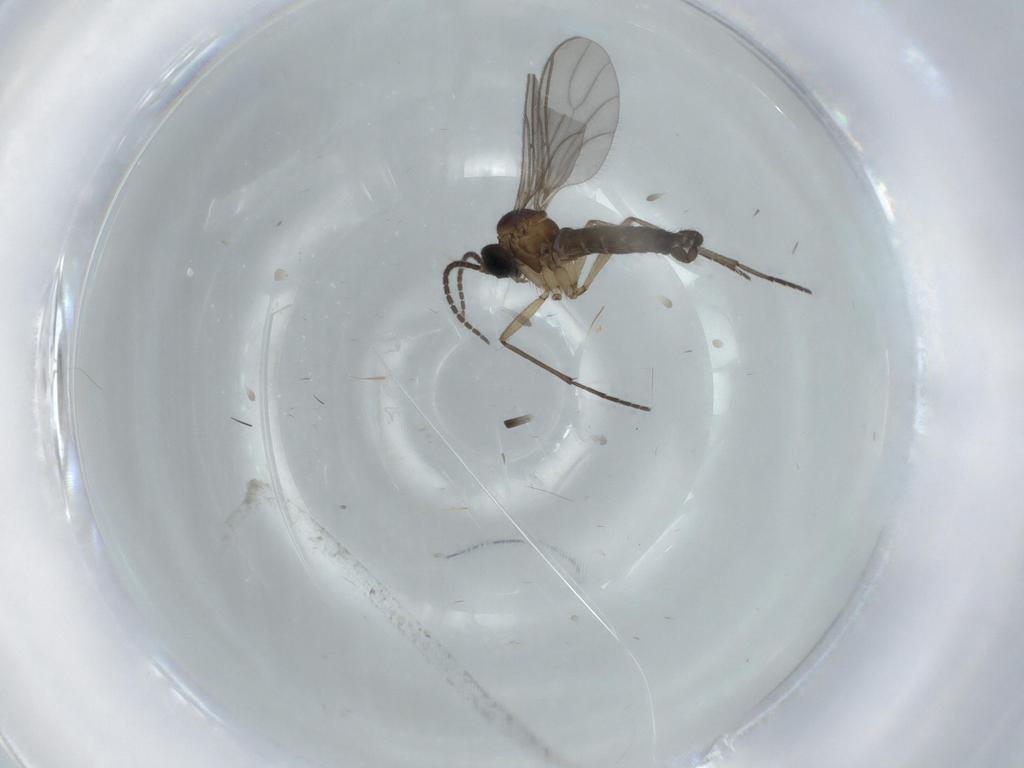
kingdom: Animalia
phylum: Arthropoda
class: Insecta
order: Diptera
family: Sciaridae
